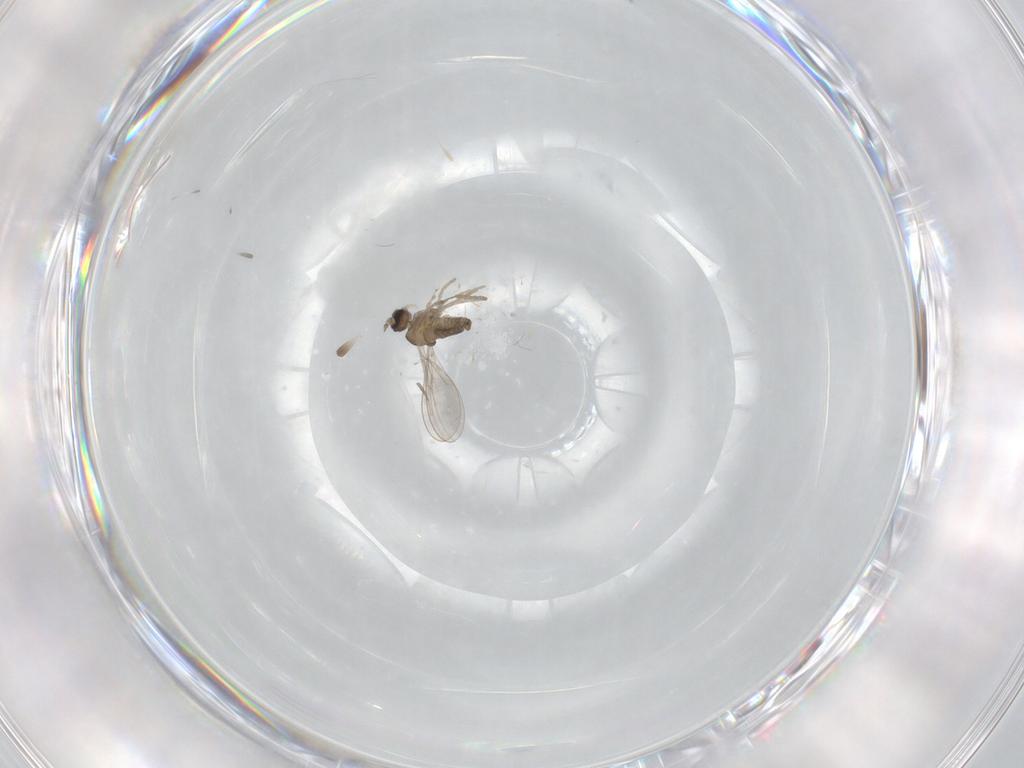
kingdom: Animalia
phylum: Arthropoda
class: Insecta
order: Diptera
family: Cecidomyiidae
